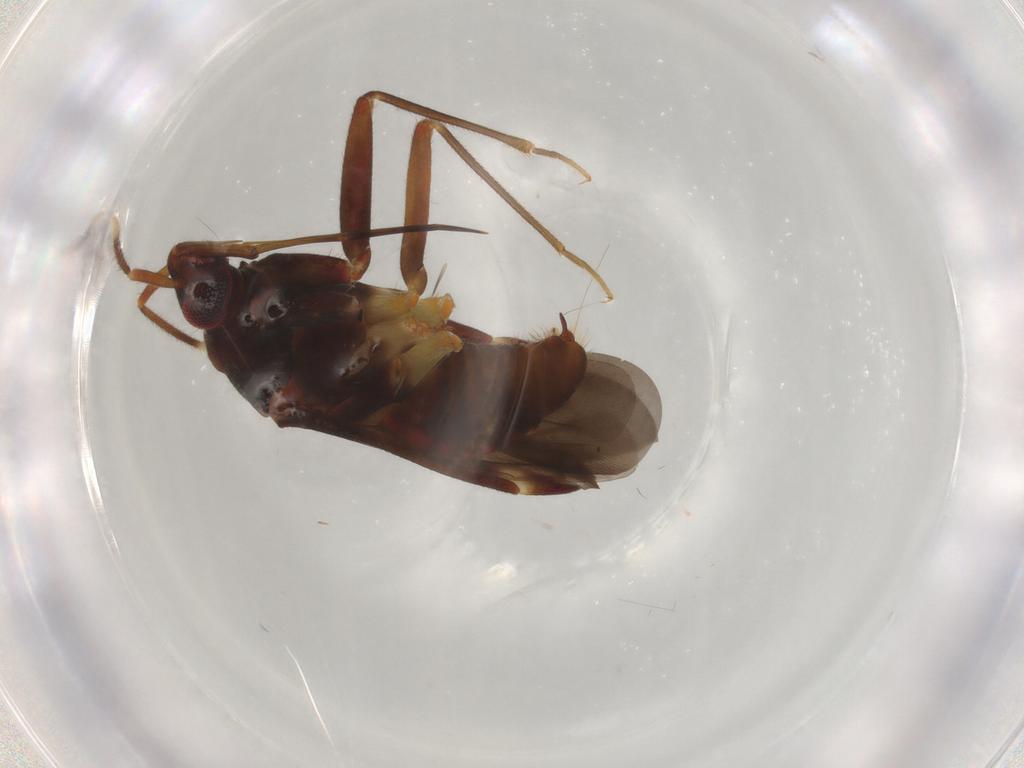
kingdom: Animalia
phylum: Arthropoda
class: Insecta
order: Hemiptera
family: Miridae
